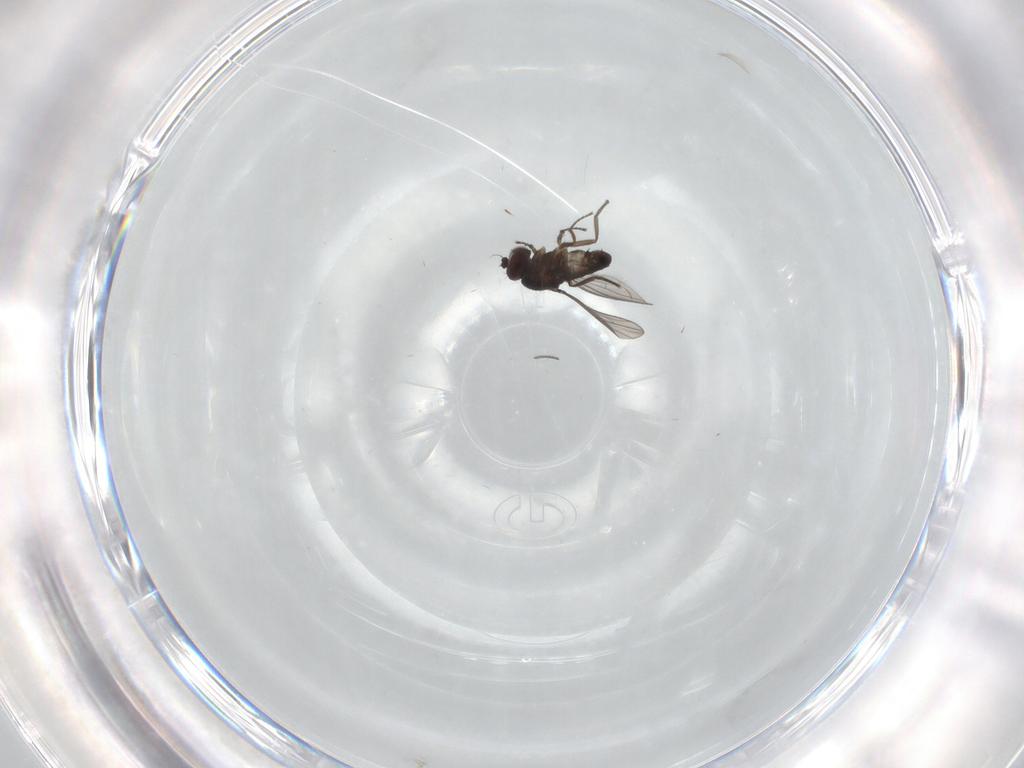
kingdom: Animalia
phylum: Arthropoda
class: Insecta
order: Diptera
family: Dolichopodidae
